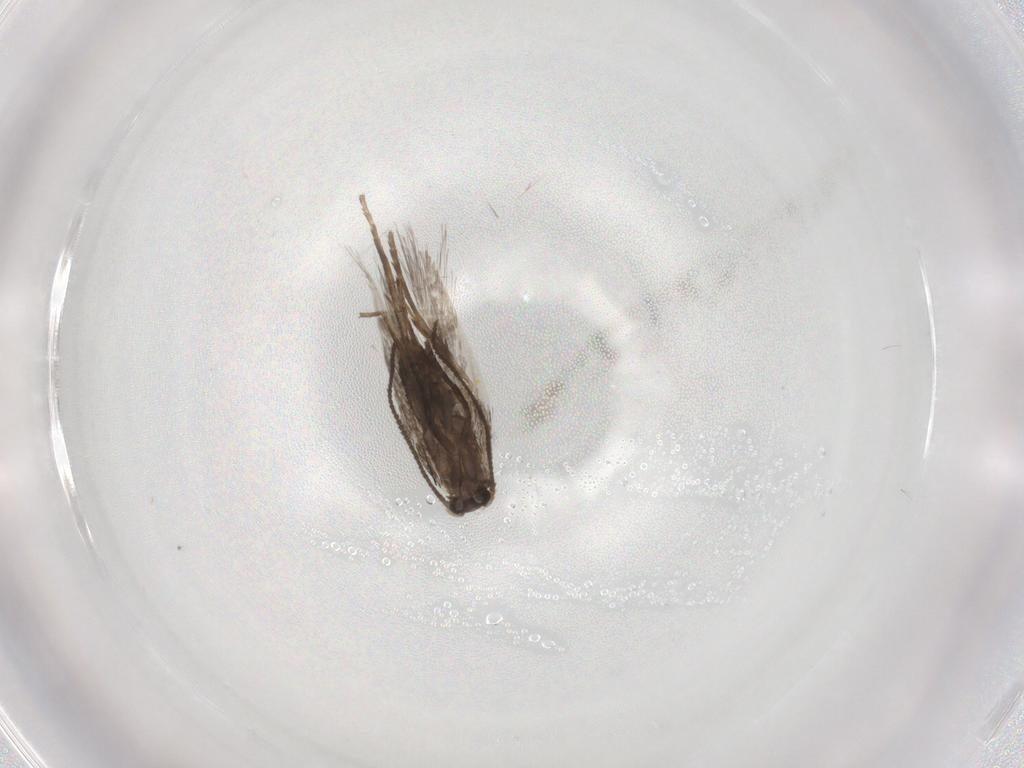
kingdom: Animalia
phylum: Arthropoda
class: Insecta
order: Lepidoptera
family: Nepticulidae
